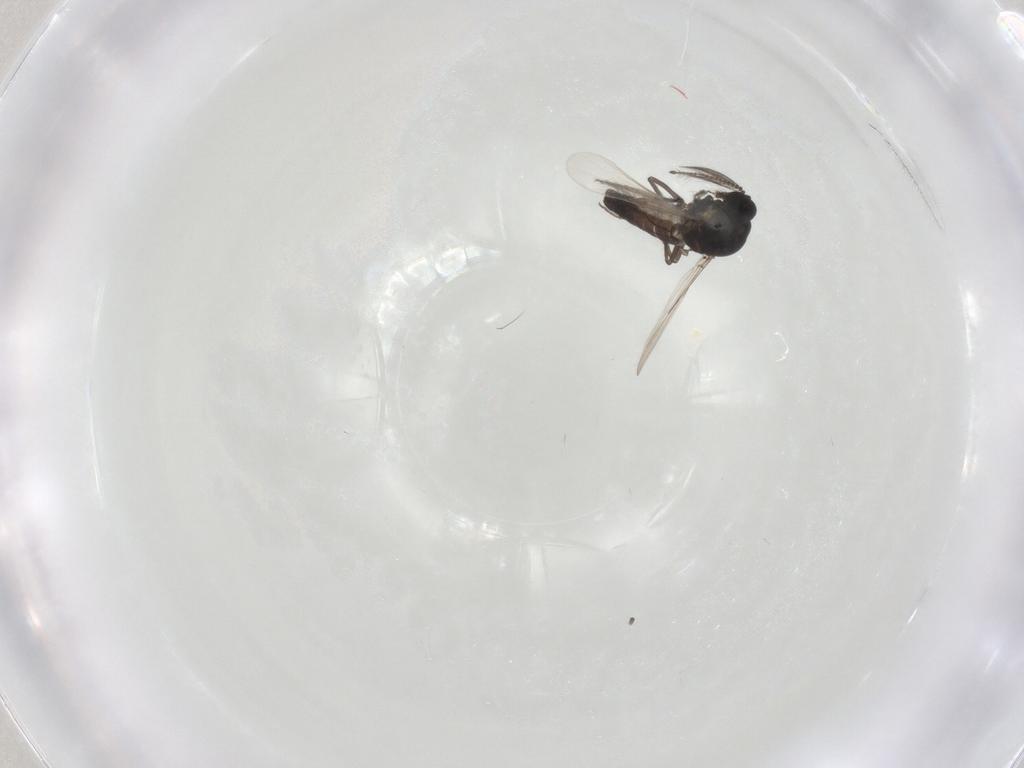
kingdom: Animalia
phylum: Arthropoda
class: Insecta
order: Diptera
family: Ceratopogonidae
